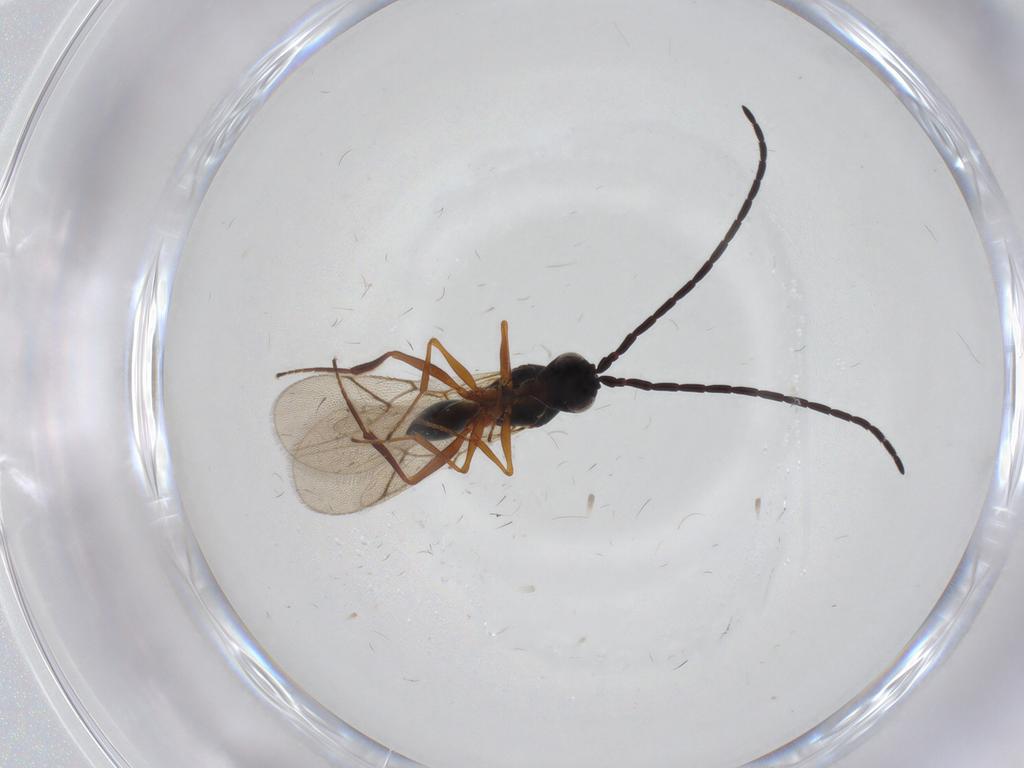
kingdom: Animalia
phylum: Arthropoda
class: Insecta
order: Hymenoptera
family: Figitidae
